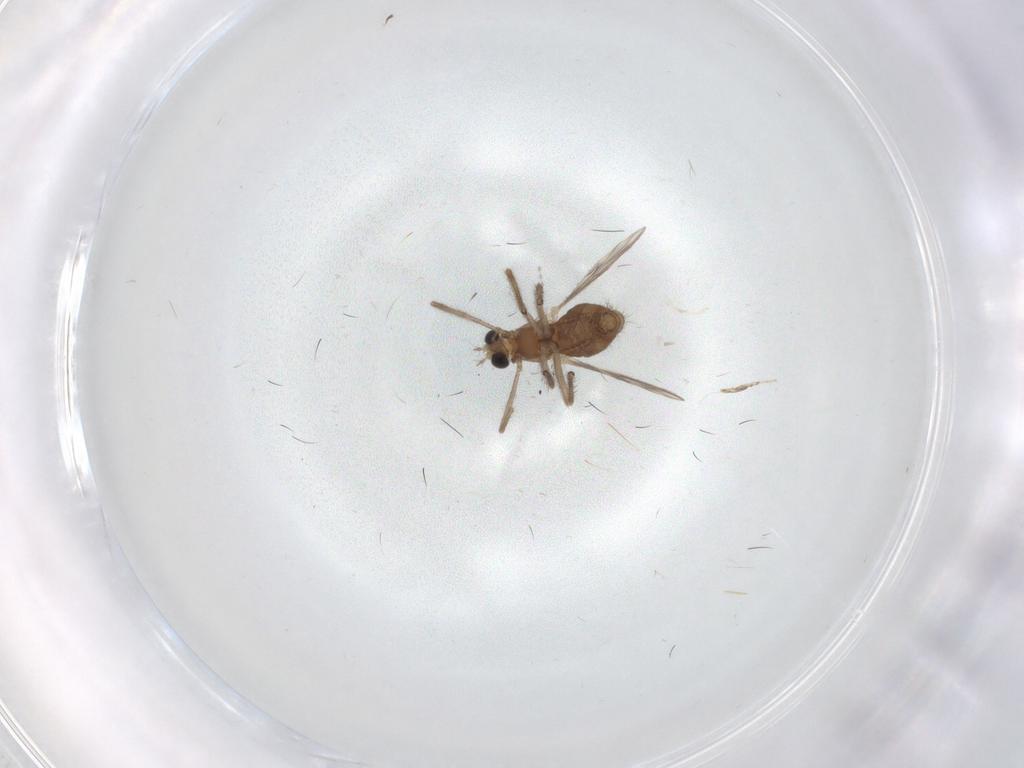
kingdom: Animalia
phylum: Arthropoda
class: Insecta
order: Diptera
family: Chironomidae
